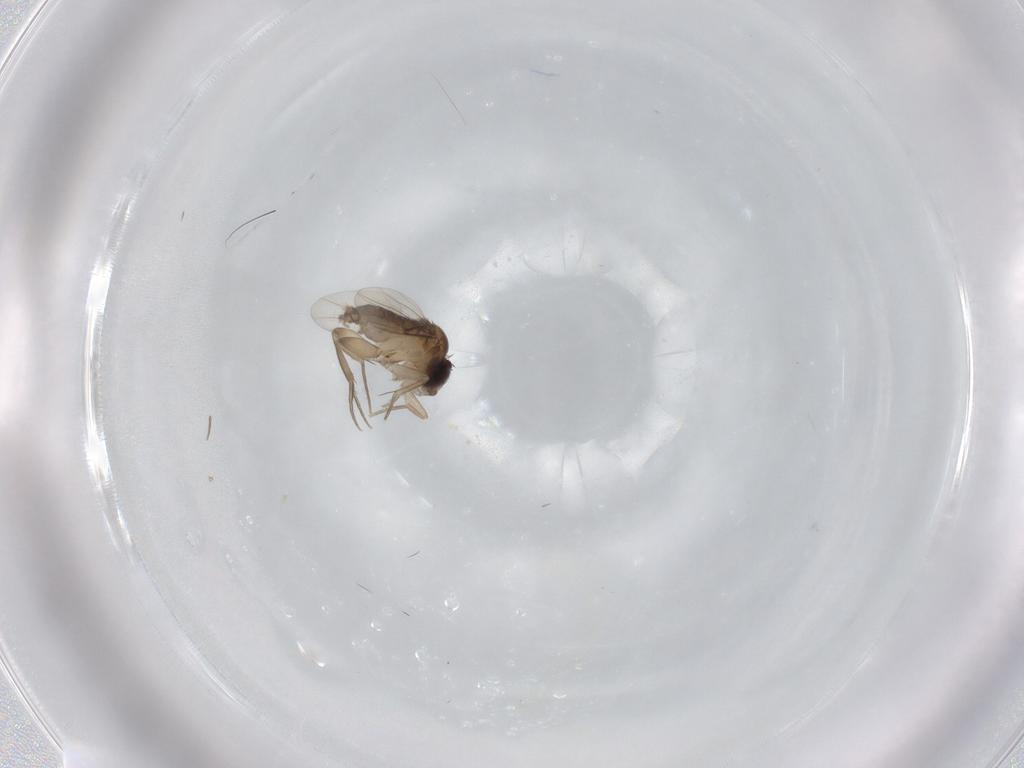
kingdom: Animalia
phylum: Arthropoda
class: Insecta
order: Diptera
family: Phoridae
